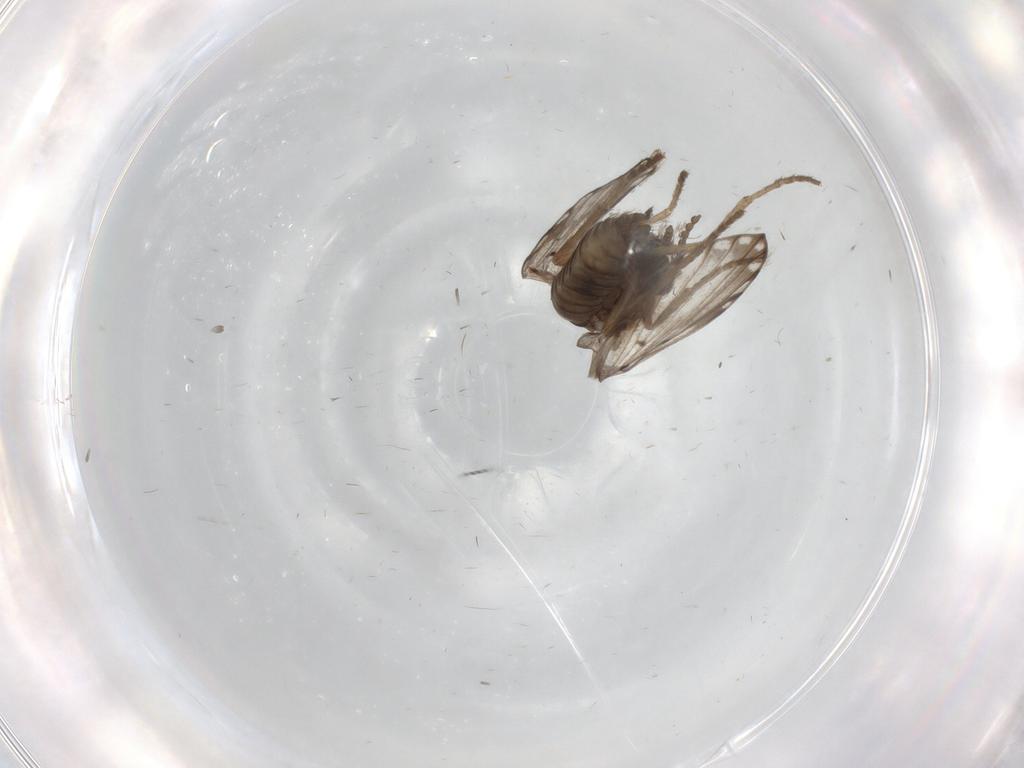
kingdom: Animalia
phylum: Arthropoda
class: Insecta
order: Diptera
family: Psychodidae
